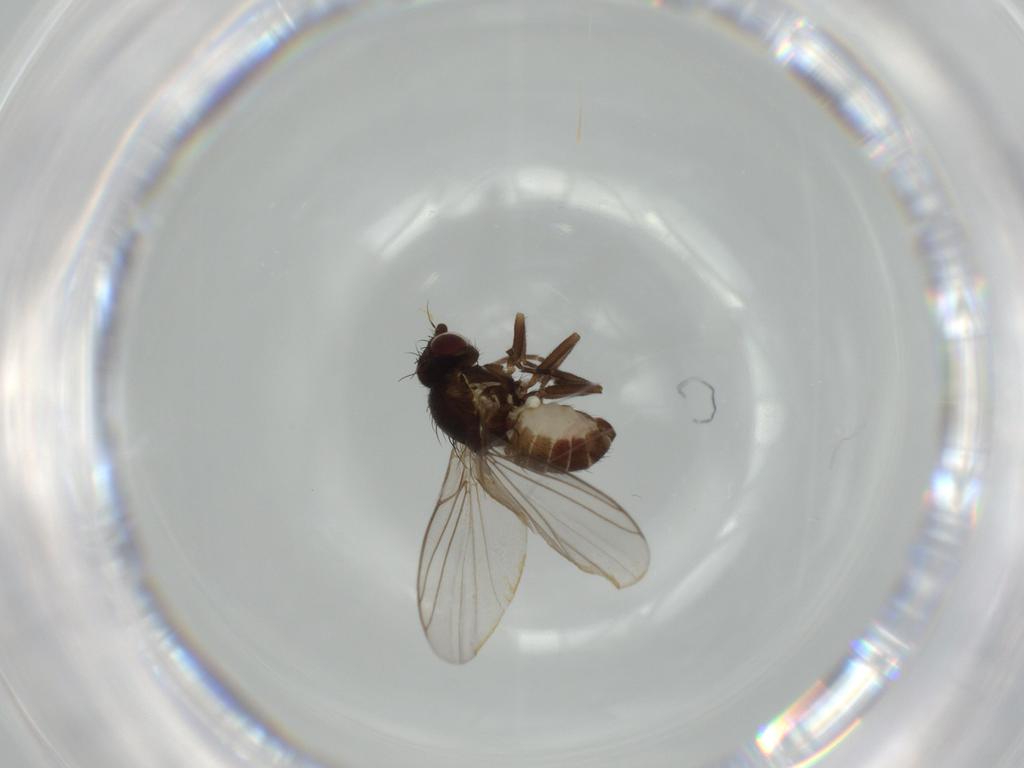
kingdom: Animalia
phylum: Arthropoda
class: Insecta
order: Diptera
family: Agromyzidae
